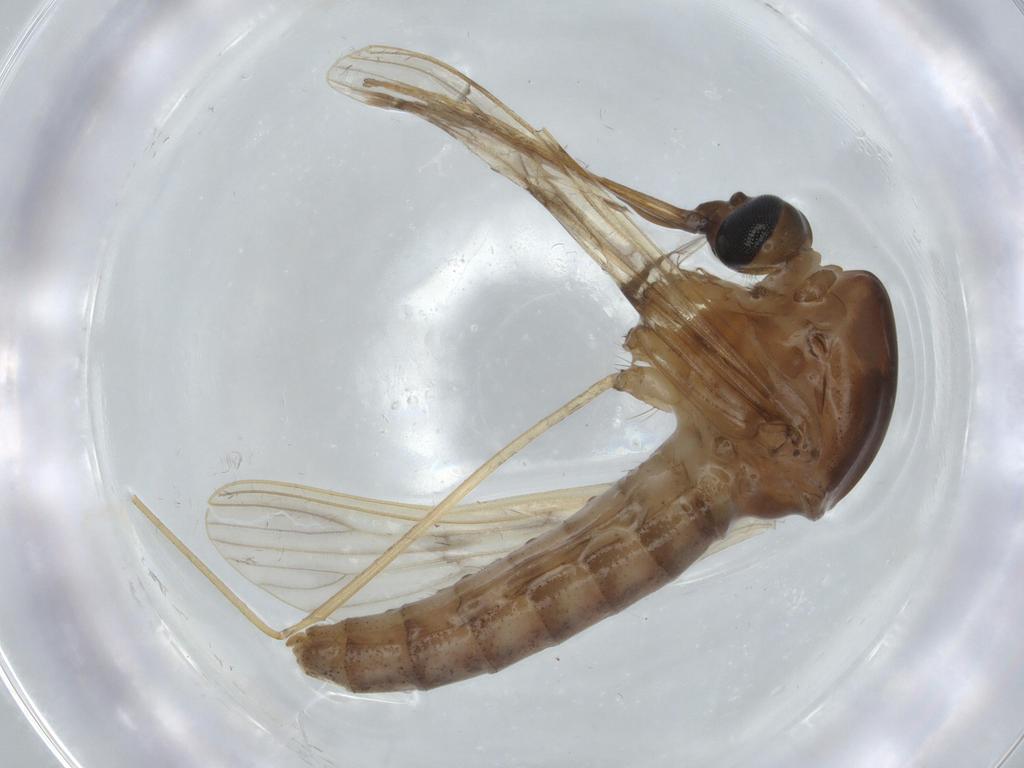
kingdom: Animalia
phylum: Arthropoda
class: Insecta
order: Diptera
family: Phoridae
